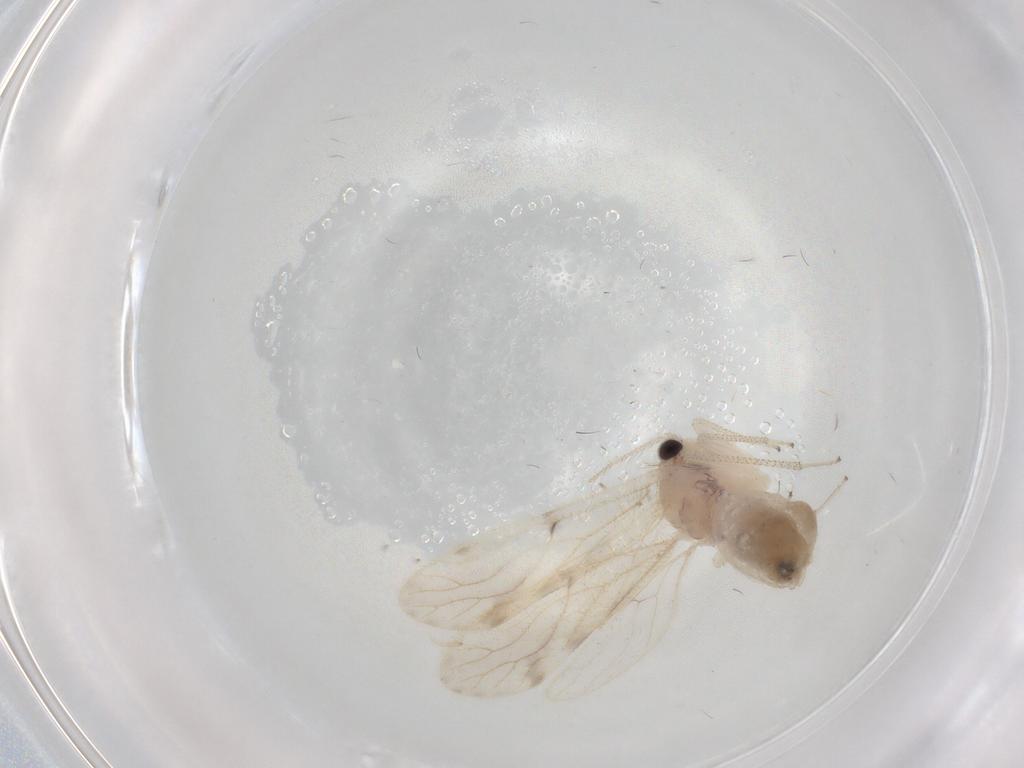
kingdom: Animalia
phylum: Arthropoda
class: Insecta
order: Psocodea
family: Pseudocaeciliidae
